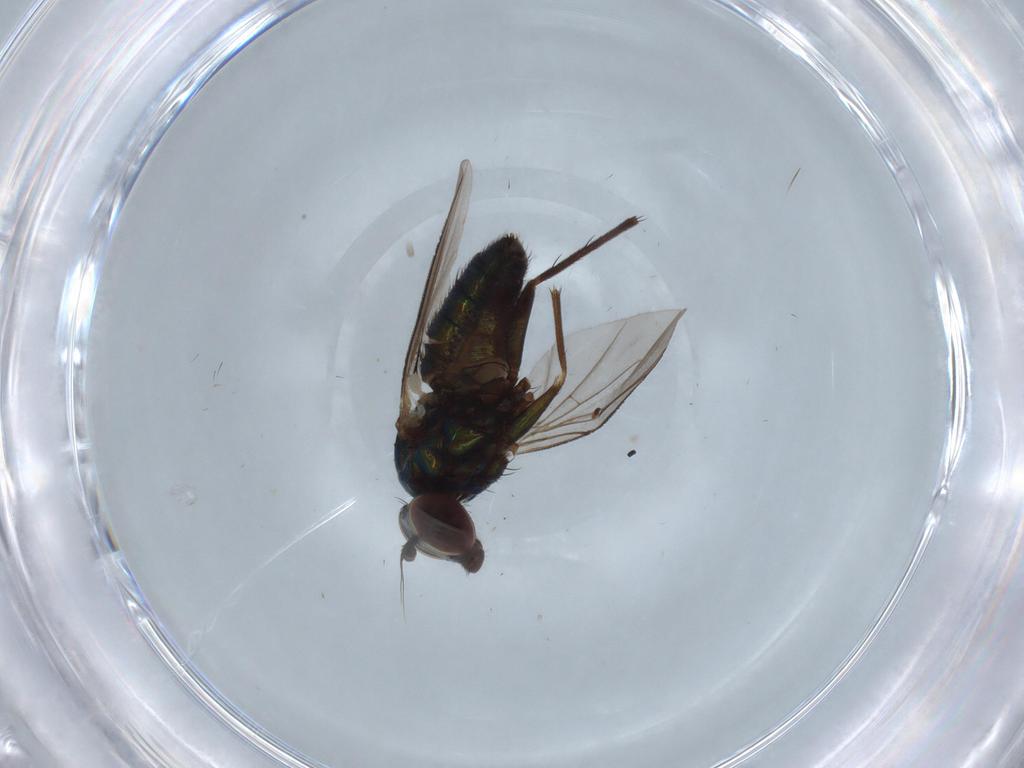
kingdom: Animalia
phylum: Arthropoda
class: Insecta
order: Diptera
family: Dolichopodidae
